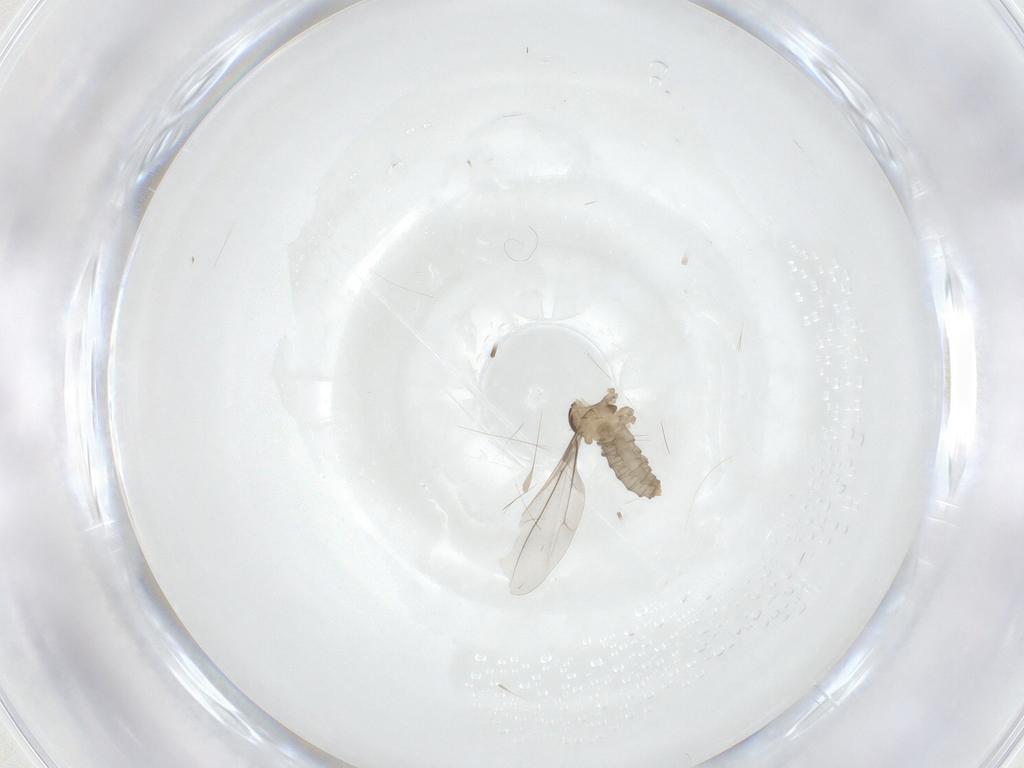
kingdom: Animalia
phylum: Arthropoda
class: Insecta
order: Diptera
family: Cecidomyiidae
